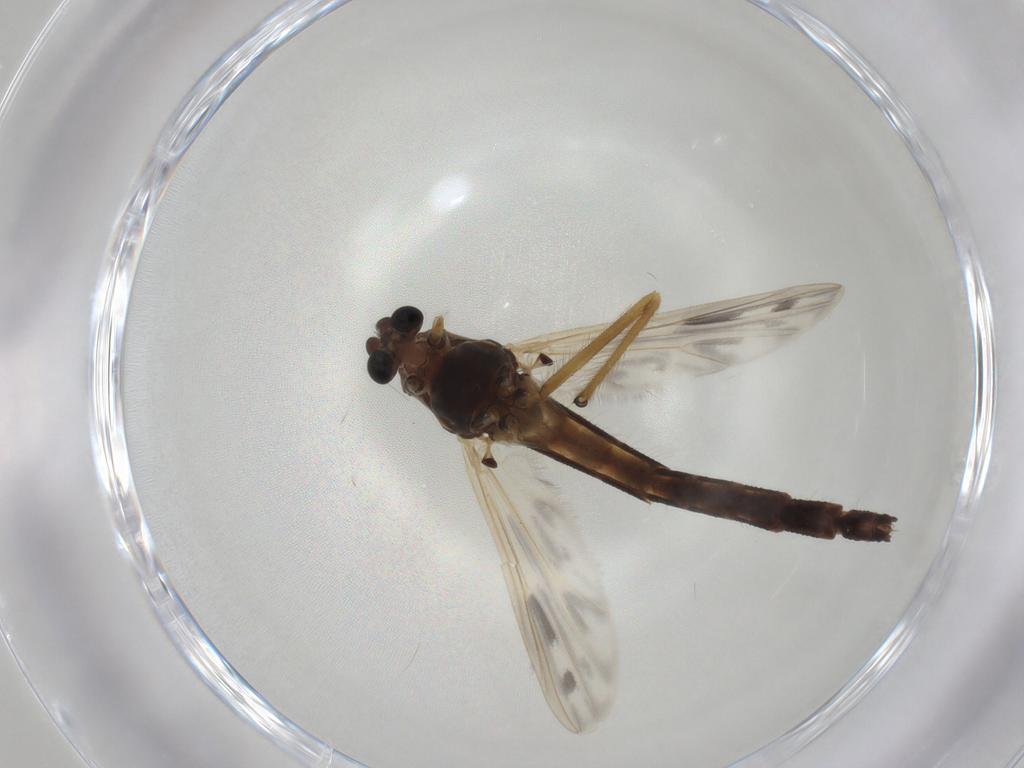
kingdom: Animalia
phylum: Arthropoda
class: Insecta
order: Diptera
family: Chironomidae
